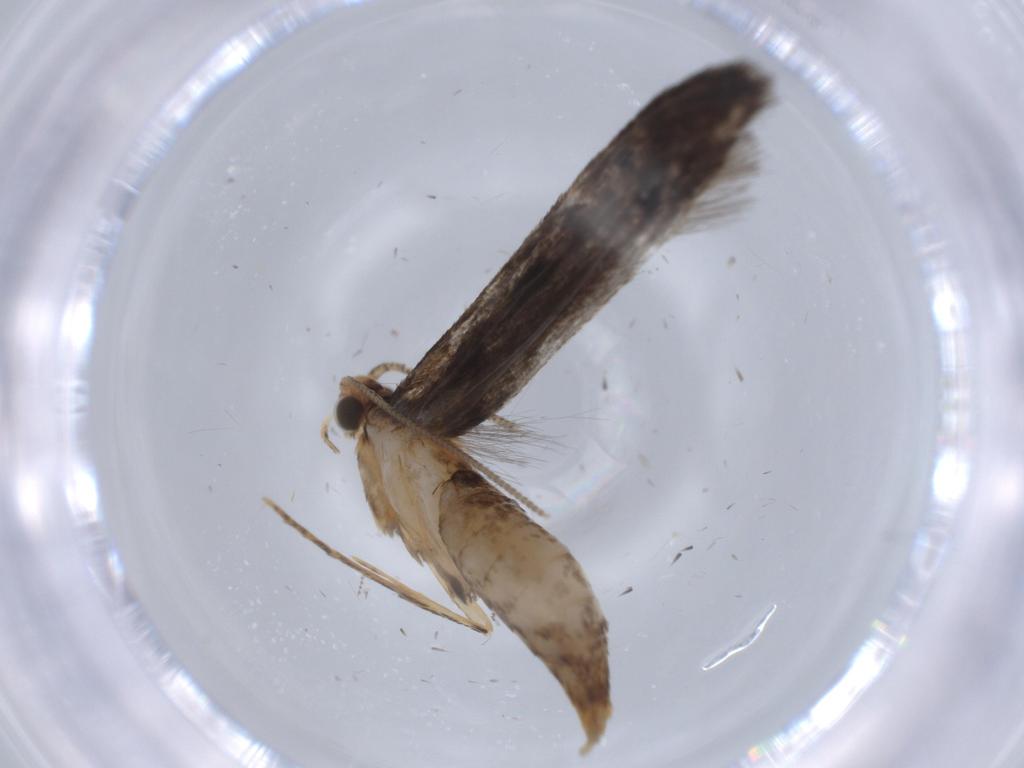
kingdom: Animalia
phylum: Arthropoda
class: Insecta
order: Lepidoptera
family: Tineidae
